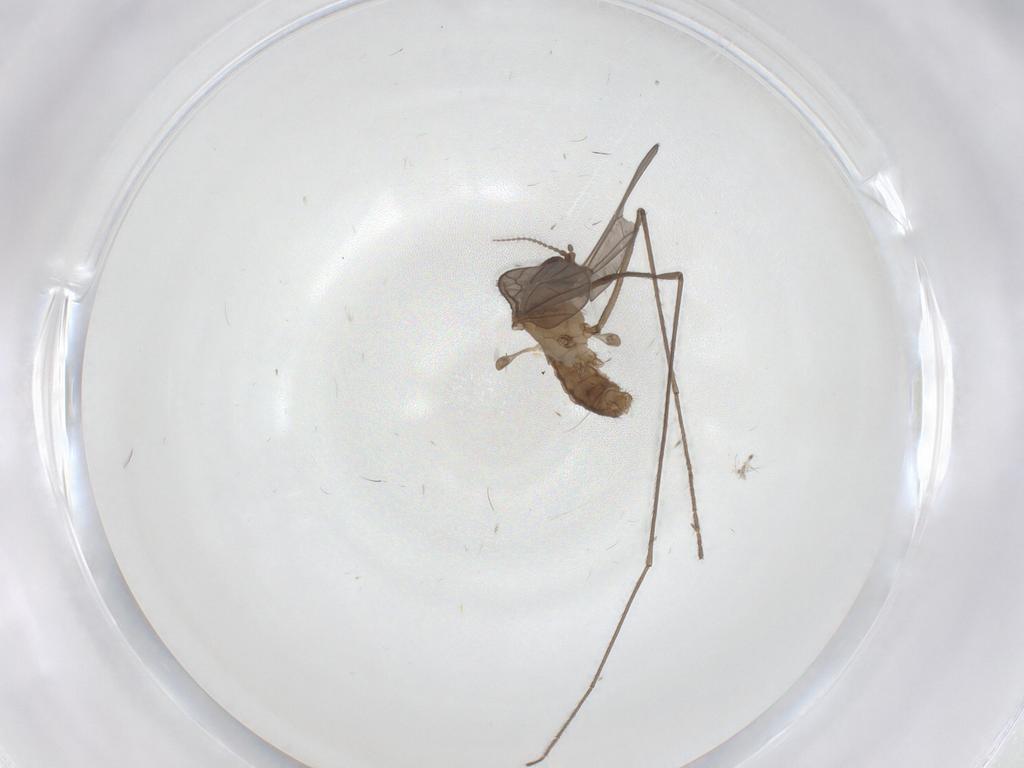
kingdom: Animalia
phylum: Arthropoda
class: Insecta
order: Diptera
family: Limoniidae
